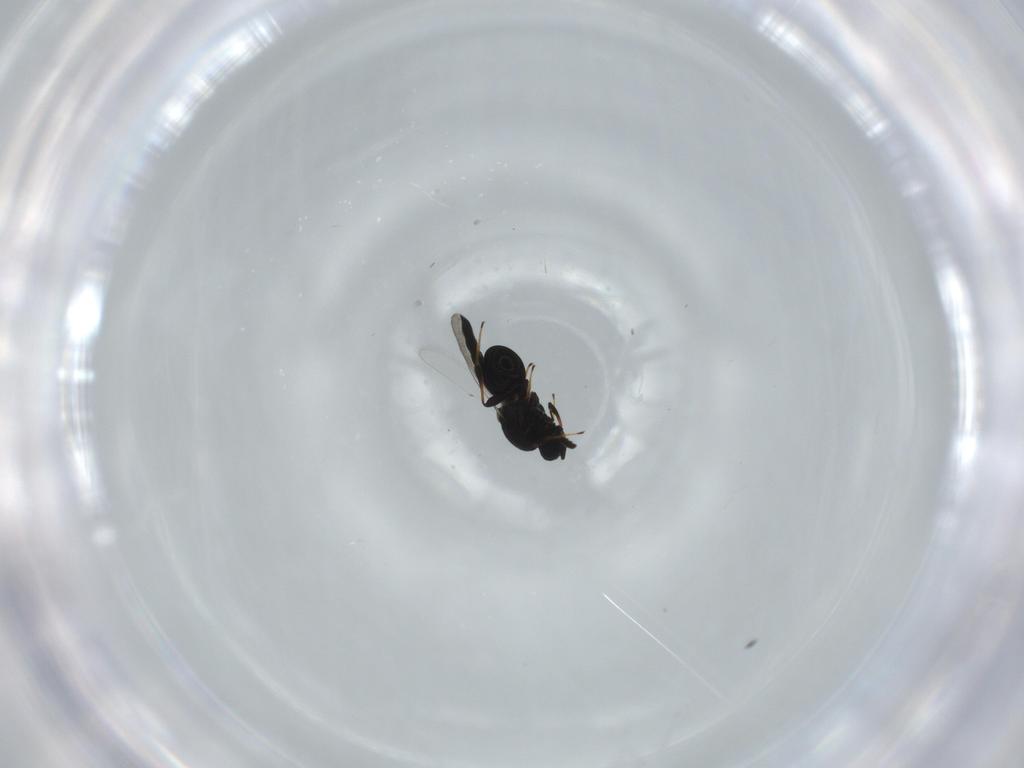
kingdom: Animalia
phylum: Arthropoda
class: Insecta
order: Hymenoptera
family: Platygastridae
